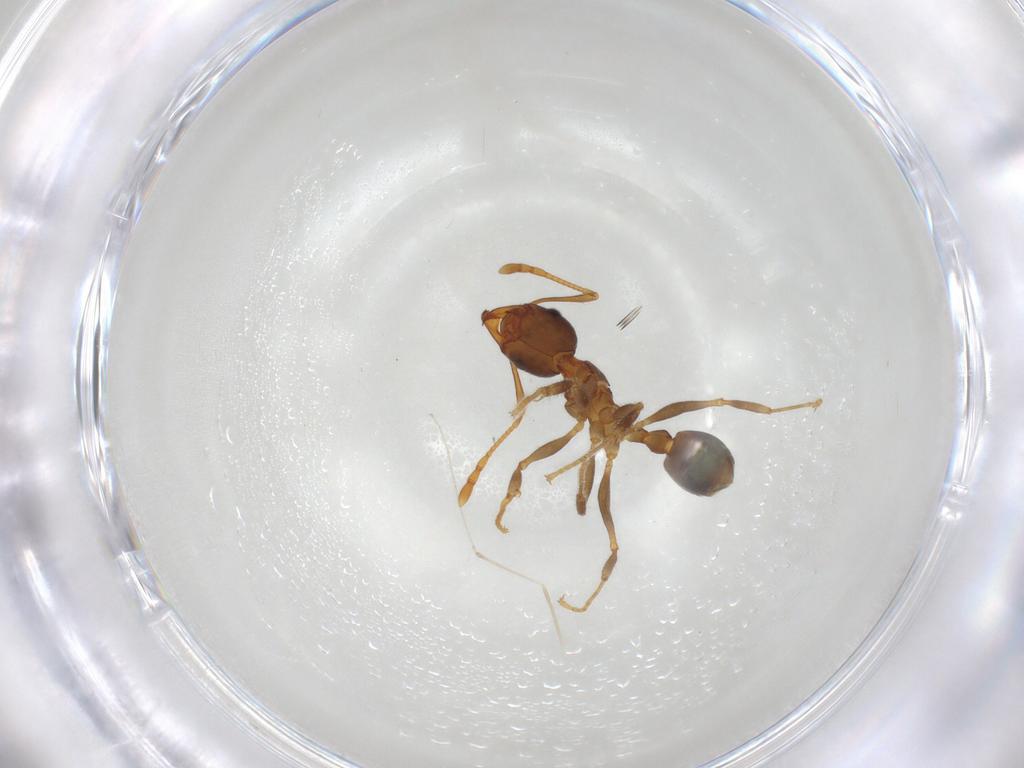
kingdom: Animalia
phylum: Arthropoda
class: Insecta
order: Hymenoptera
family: Formicidae
